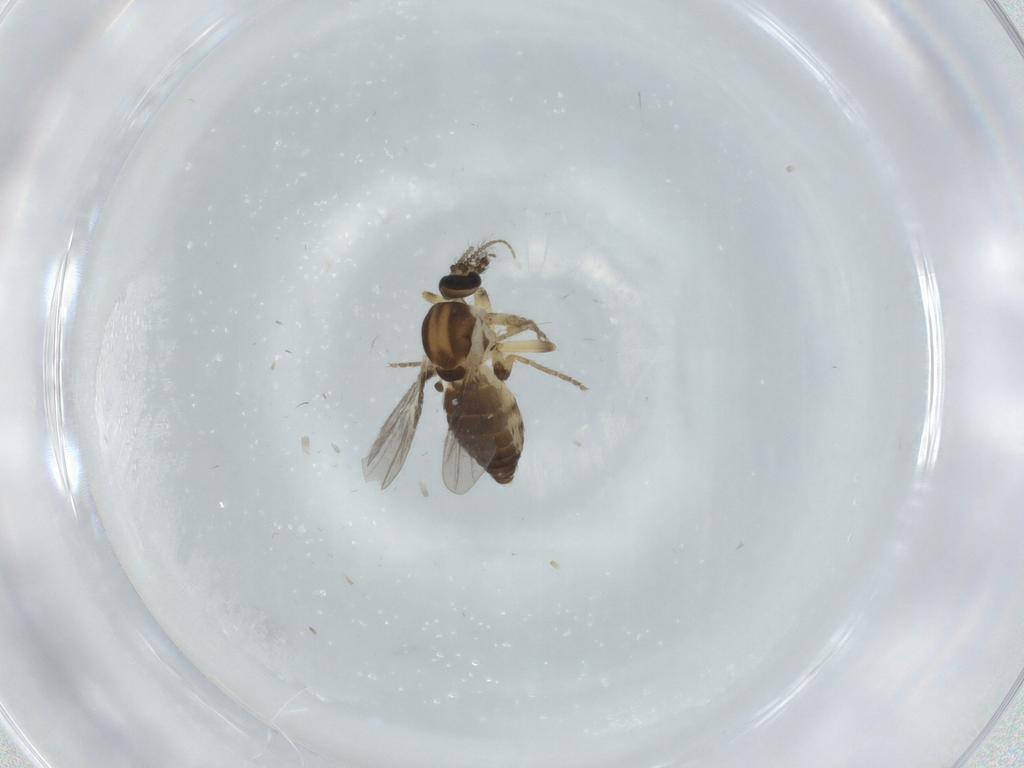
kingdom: Animalia
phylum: Arthropoda
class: Insecta
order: Diptera
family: Ceratopogonidae
